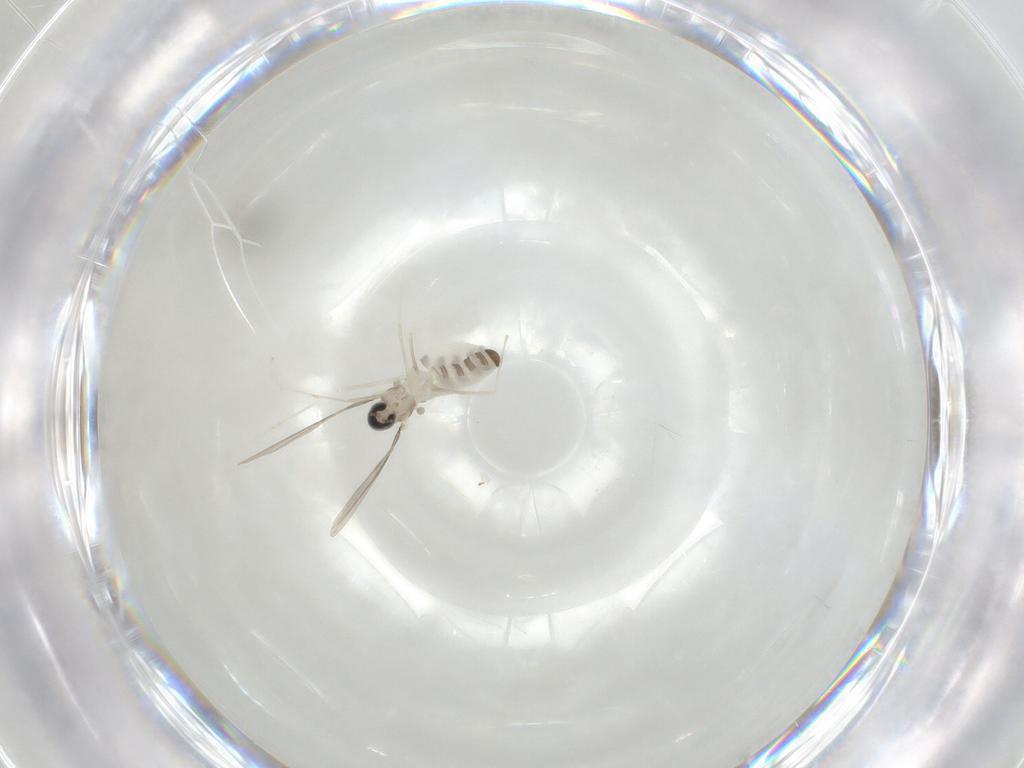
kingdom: Animalia
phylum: Arthropoda
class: Insecta
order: Diptera
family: Cecidomyiidae
